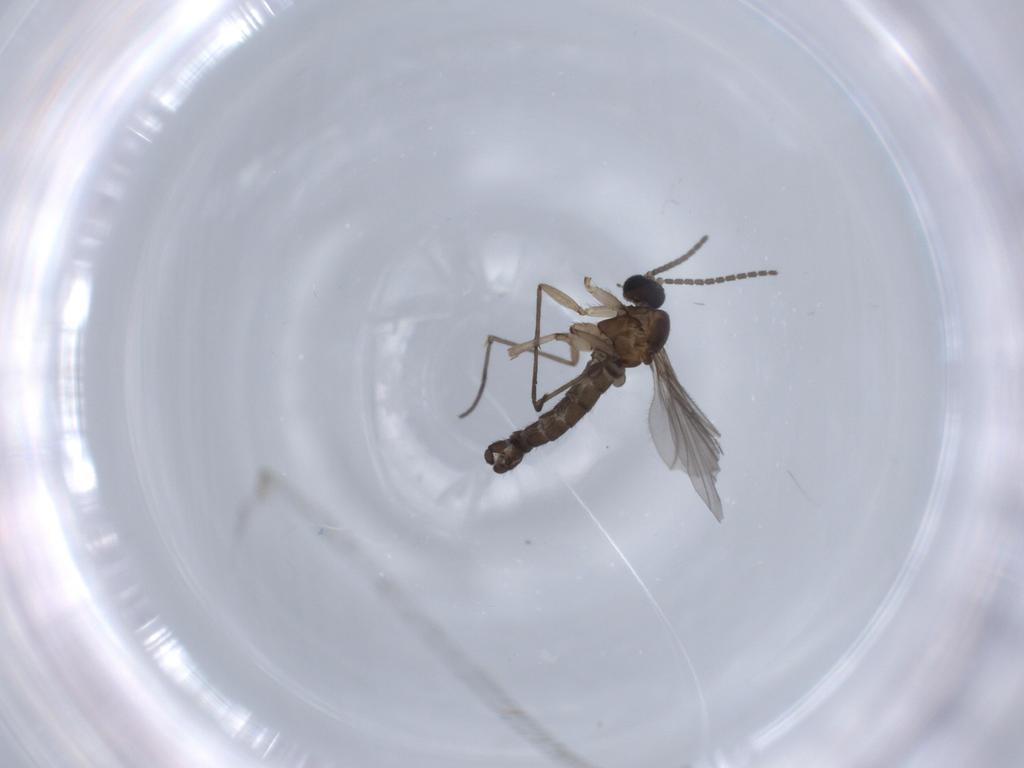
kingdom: Animalia
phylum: Arthropoda
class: Insecta
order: Diptera
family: Sciaridae
